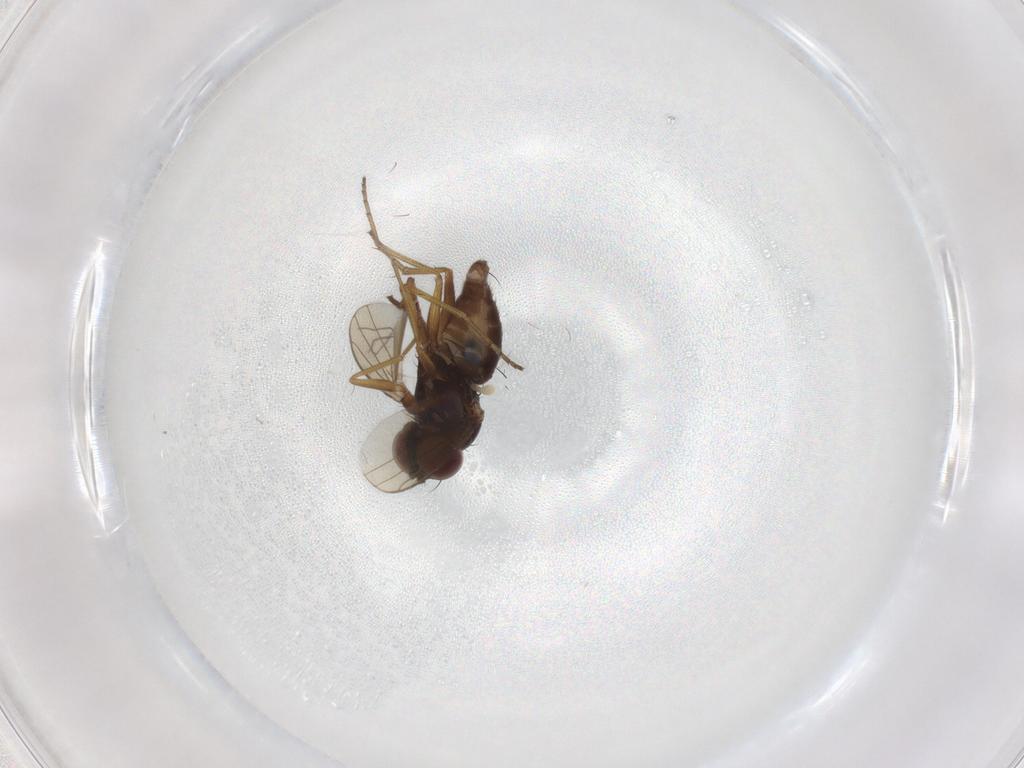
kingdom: Animalia
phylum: Arthropoda
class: Insecta
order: Diptera
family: Dolichopodidae
